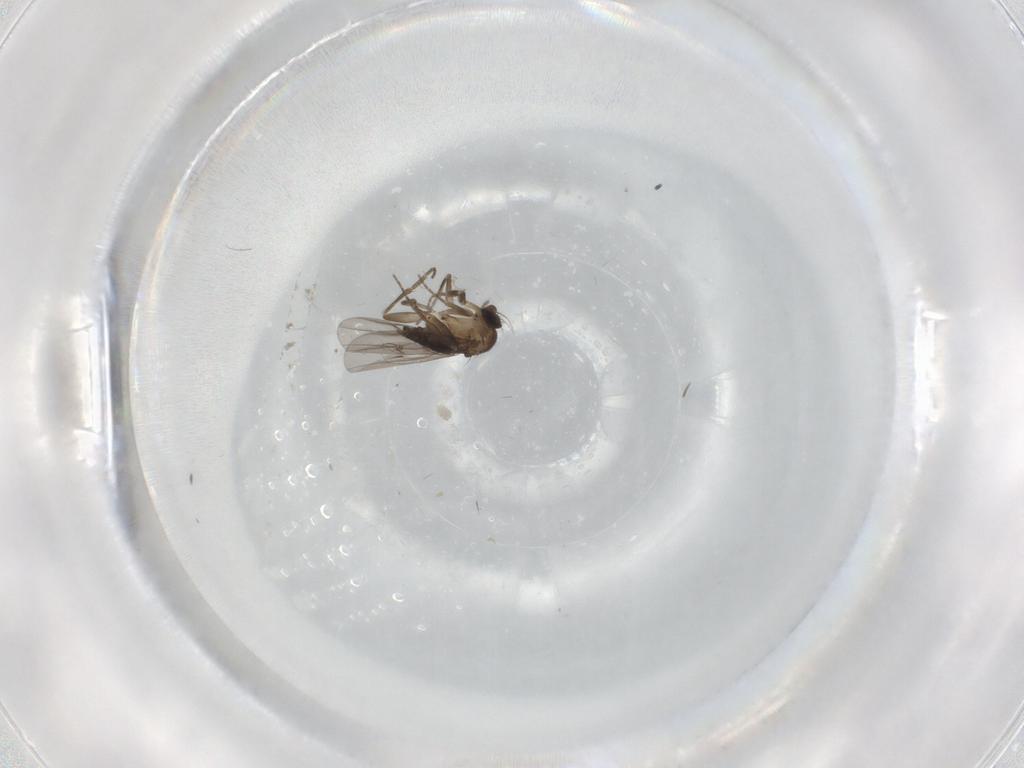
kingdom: Animalia
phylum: Arthropoda
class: Insecta
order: Diptera
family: Phoridae
